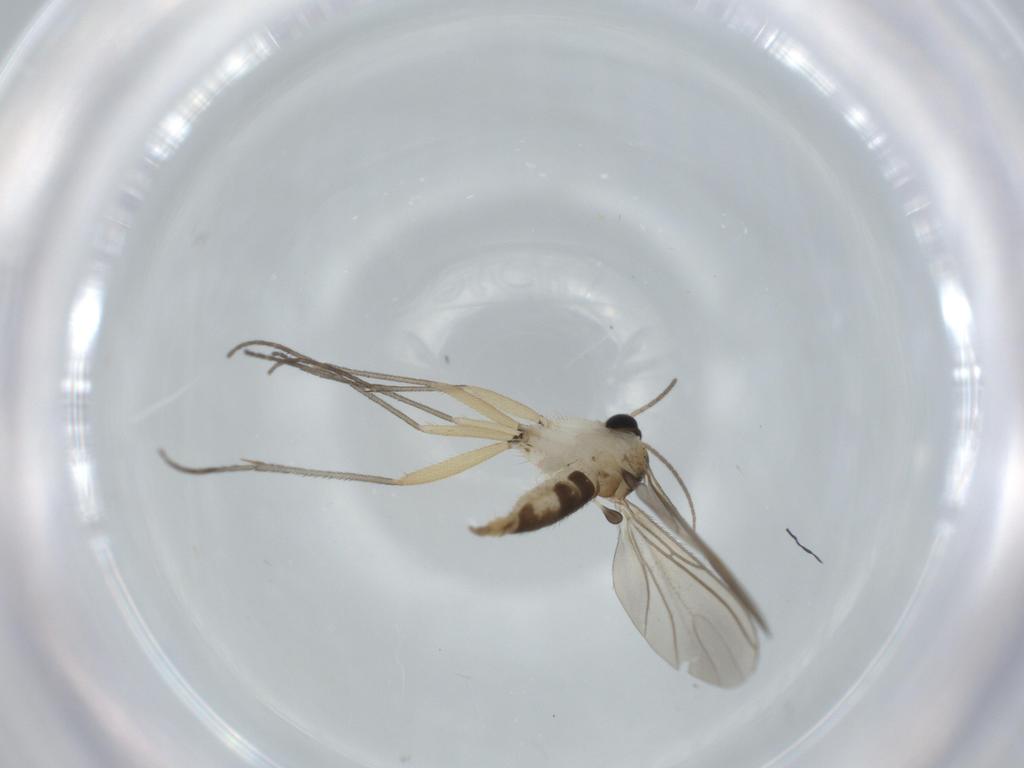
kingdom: Animalia
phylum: Arthropoda
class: Insecta
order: Diptera
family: Sciaridae
